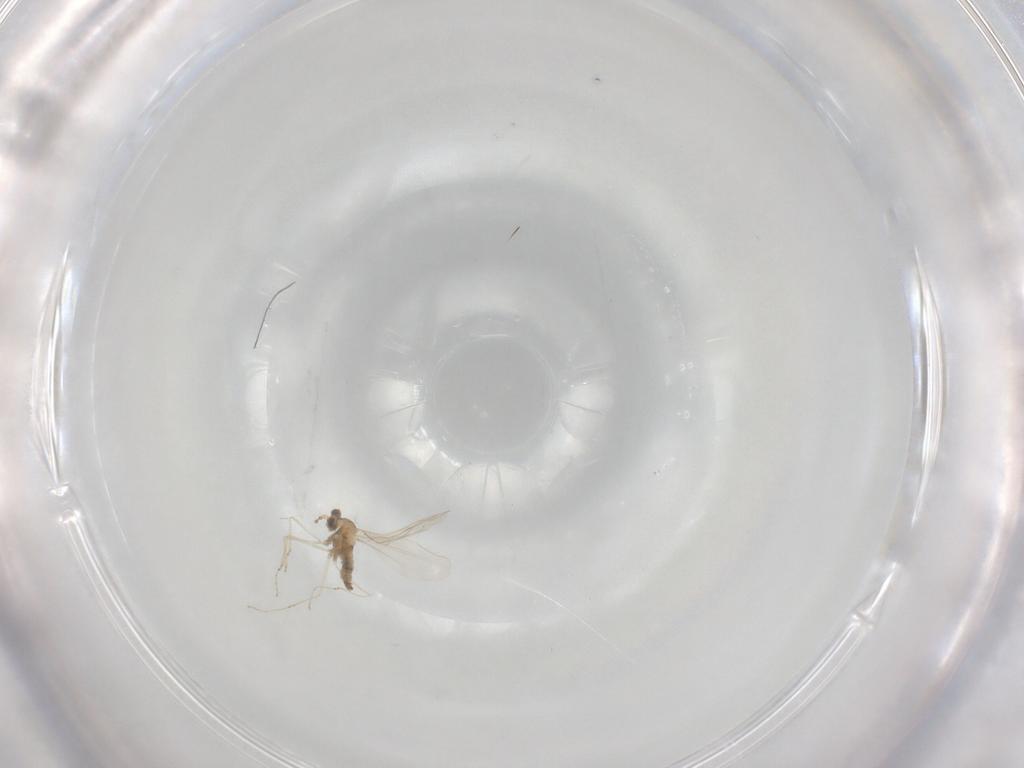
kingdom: Animalia
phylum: Arthropoda
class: Insecta
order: Diptera
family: Cecidomyiidae
